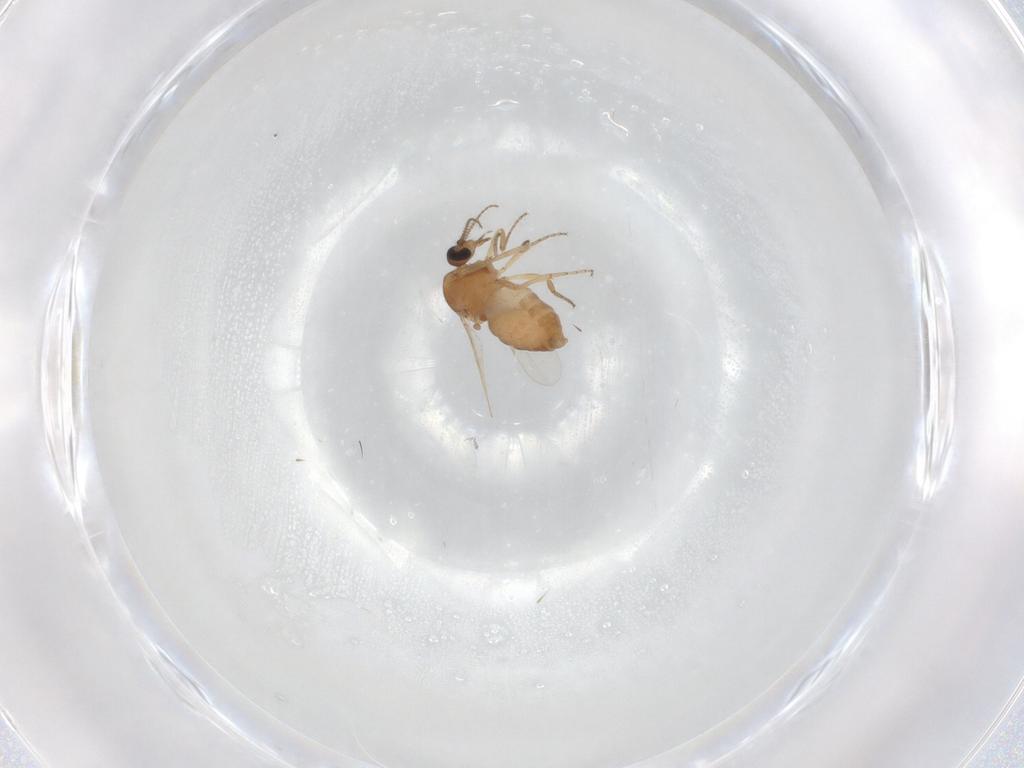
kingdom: Animalia
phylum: Arthropoda
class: Insecta
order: Diptera
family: Ceratopogonidae
